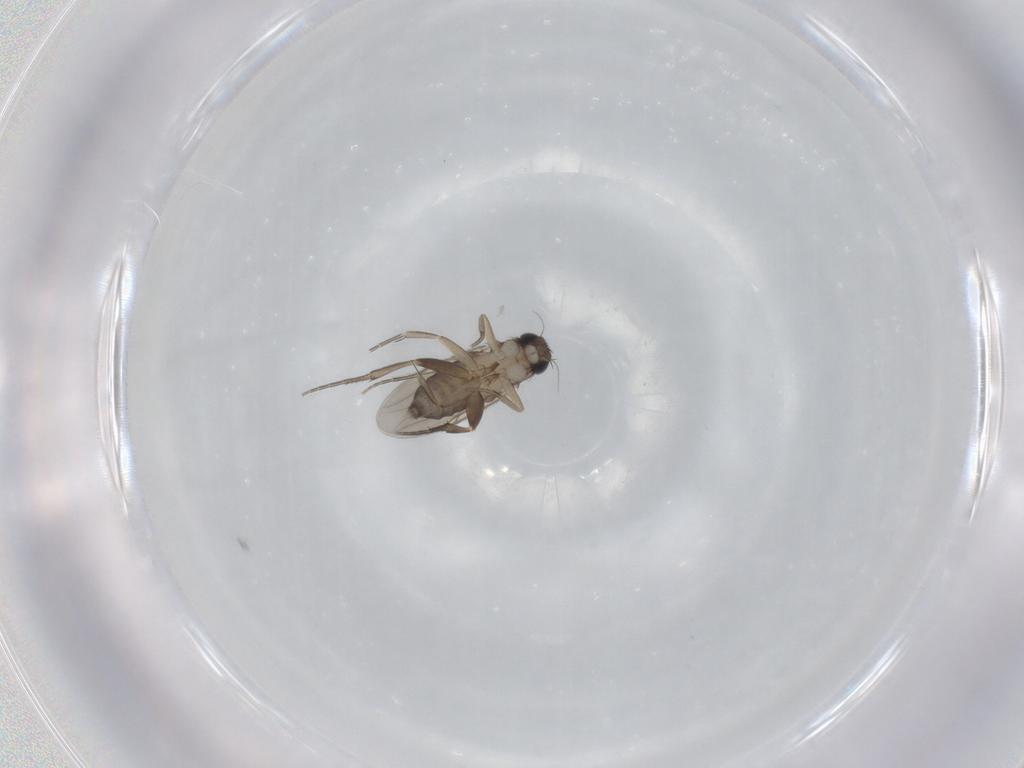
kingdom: Animalia
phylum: Arthropoda
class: Insecta
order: Diptera
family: Phoridae
